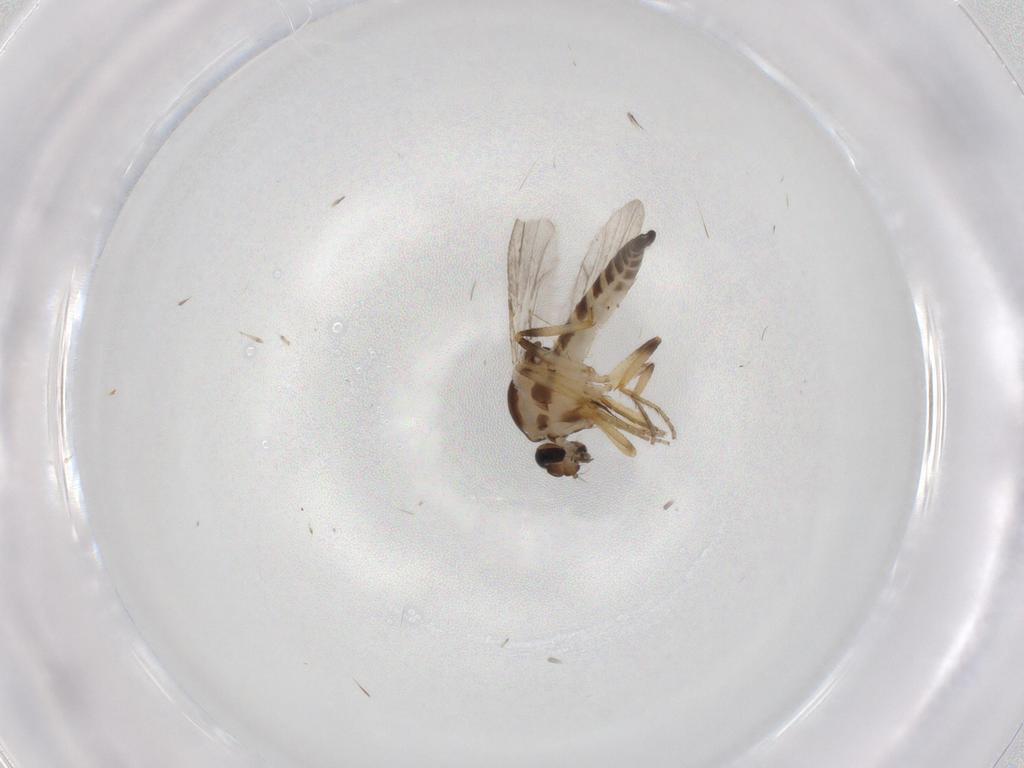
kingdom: Animalia
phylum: Arthropoda
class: Insecta
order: Diptera
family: Ceratopogonidae
